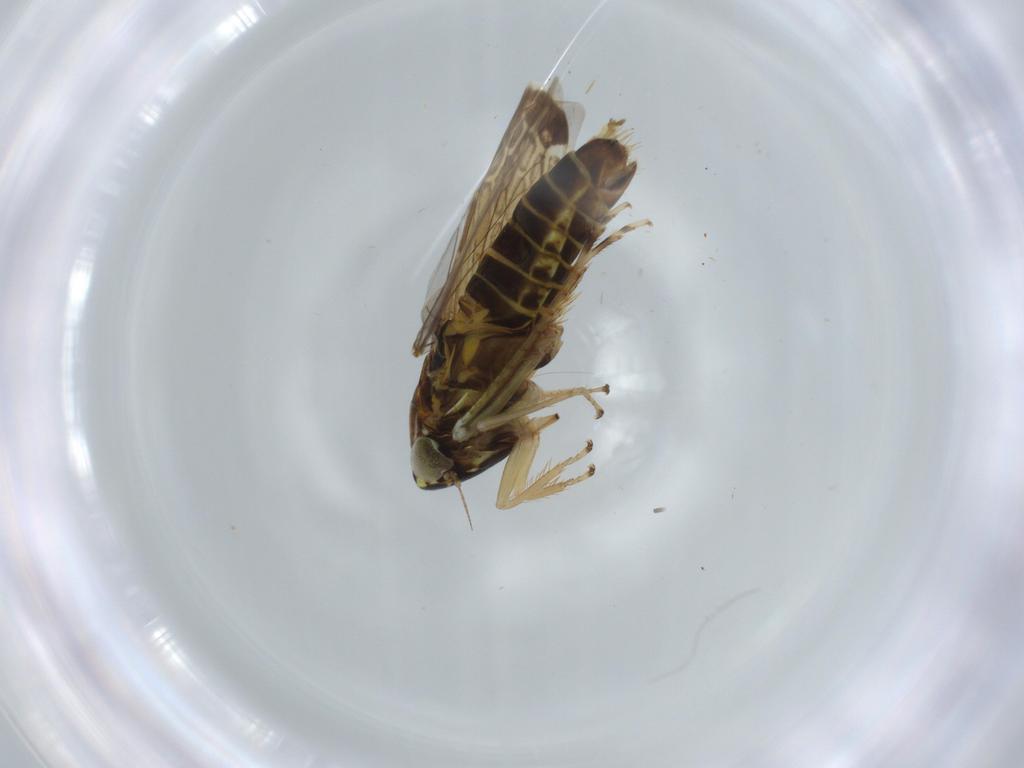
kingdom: Animalia
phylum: Arthropoda
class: Insecta
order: Hemiptera
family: Cicadellidae
